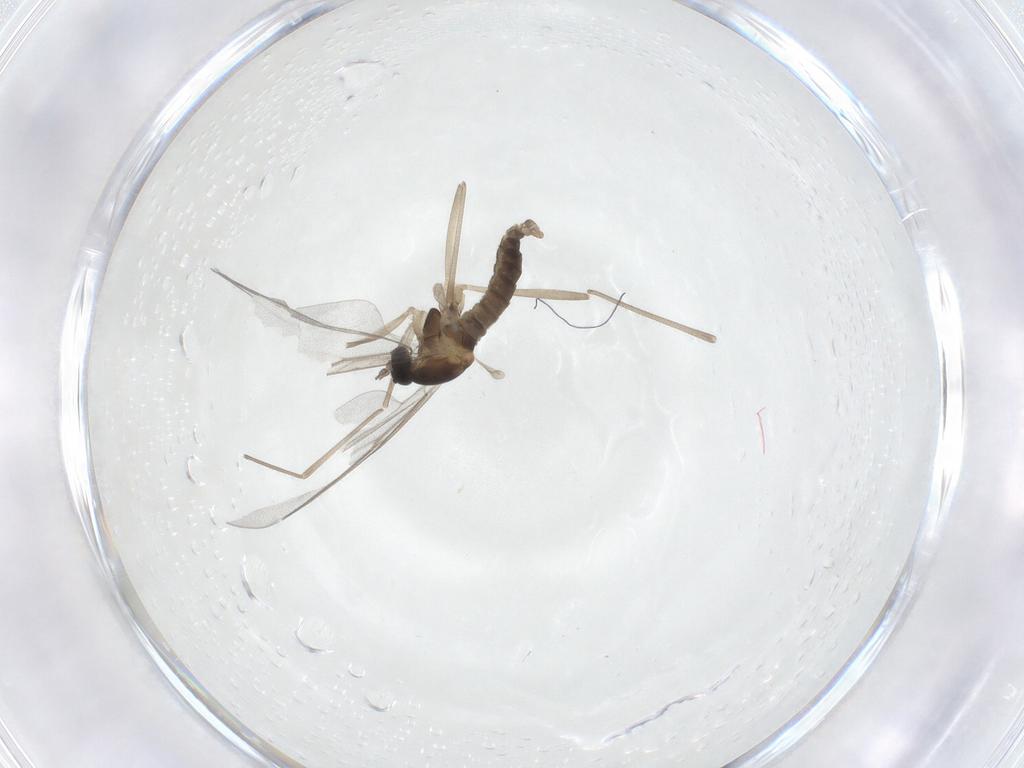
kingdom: Animalia
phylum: Arthropoda
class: Insecta
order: Diptera
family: Cecidomyiidae
